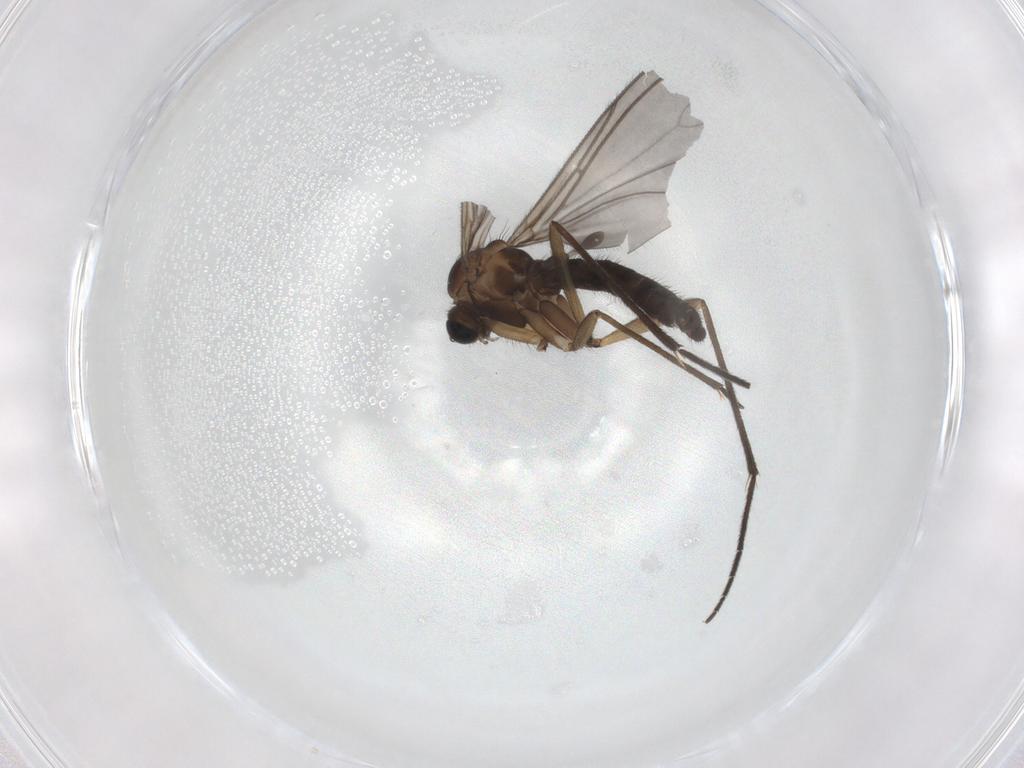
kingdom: Animalia
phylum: Arthropoda
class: Insecta
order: Diptera
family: Sciaridae
